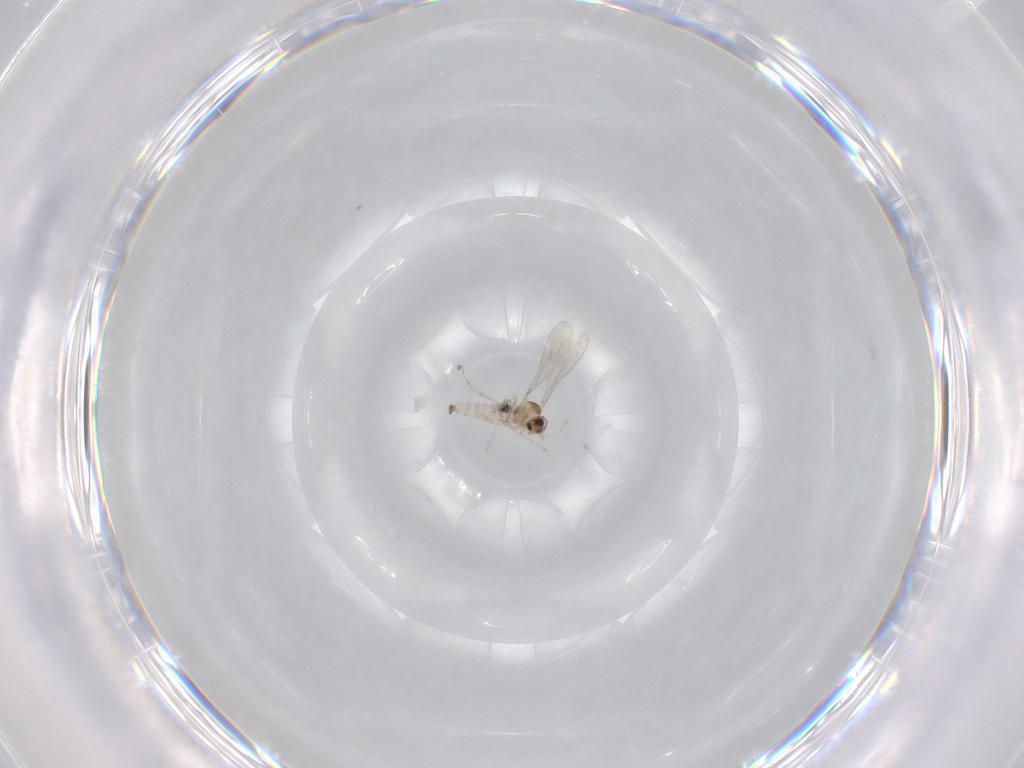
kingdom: Animalia
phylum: Arthropoda
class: Insecta
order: Diptera
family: Cecidomyiidae
